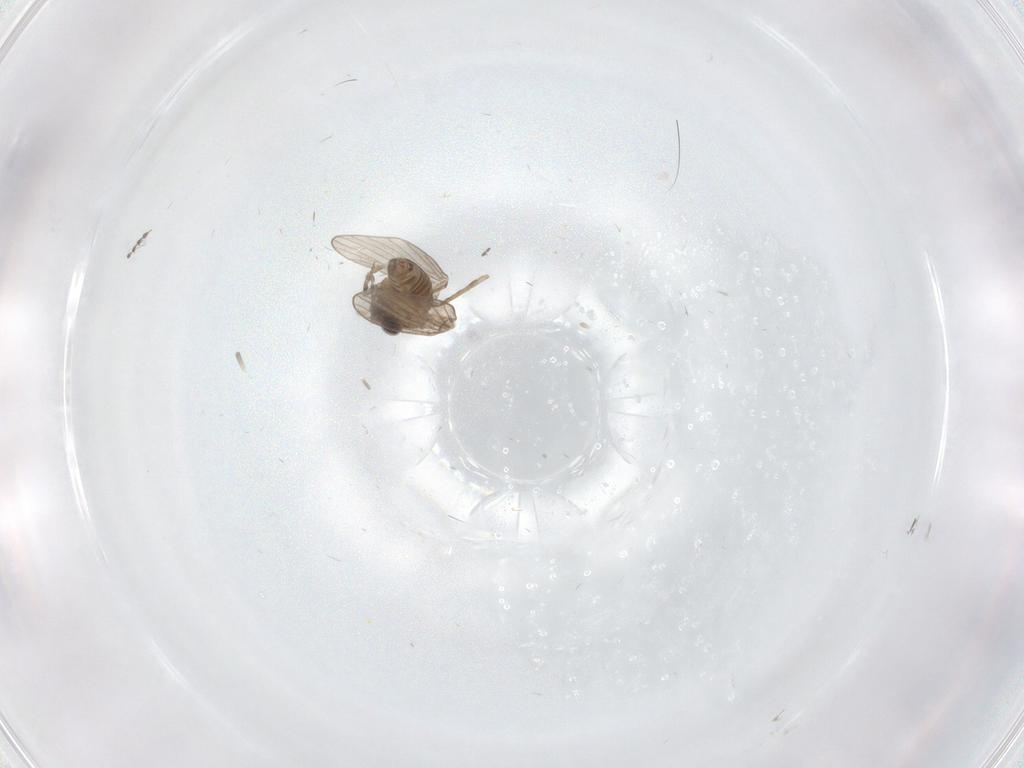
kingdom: Animalia
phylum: Arthropoda
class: Insecta
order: Diptera
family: Psychodidae
